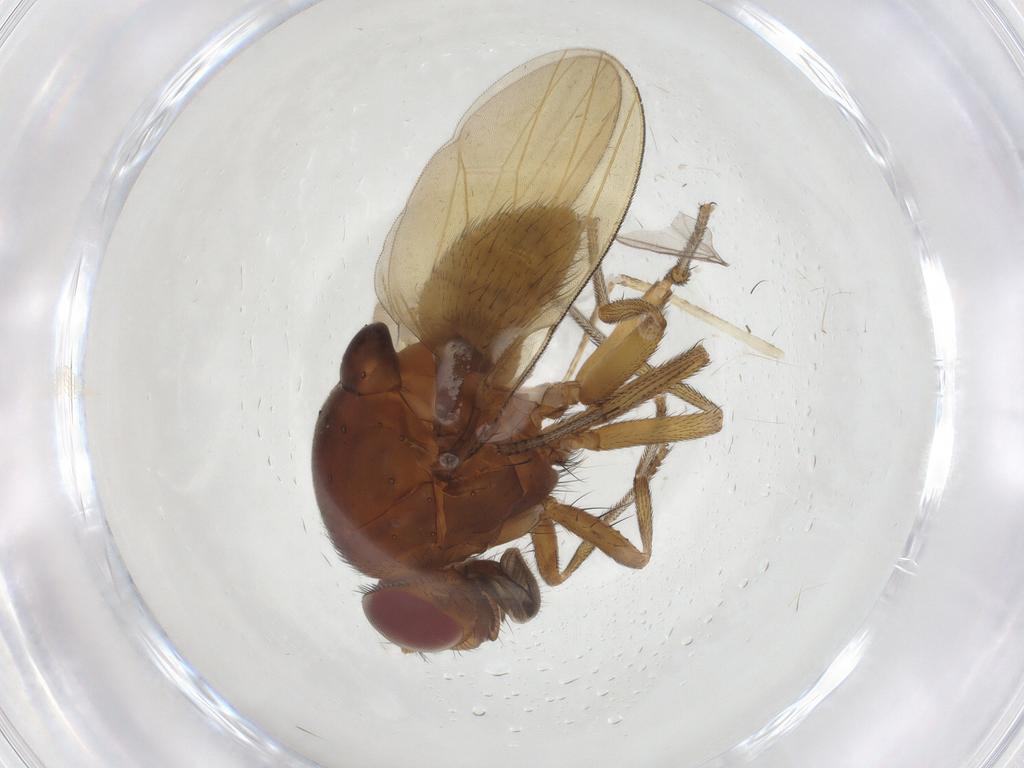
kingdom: Animalia
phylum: Arthropoda
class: Insecta
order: Diptera
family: Lauxaniidae
